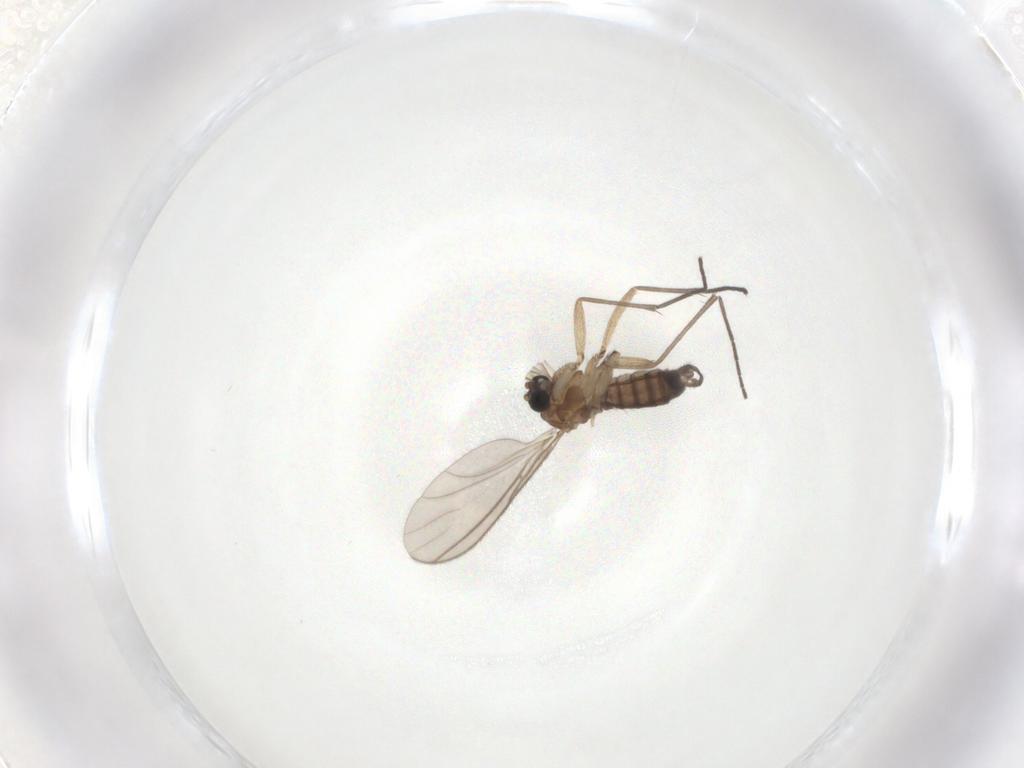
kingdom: Animalia
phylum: Arthropoda
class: Insecta
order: Diptera
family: Sciaridae
